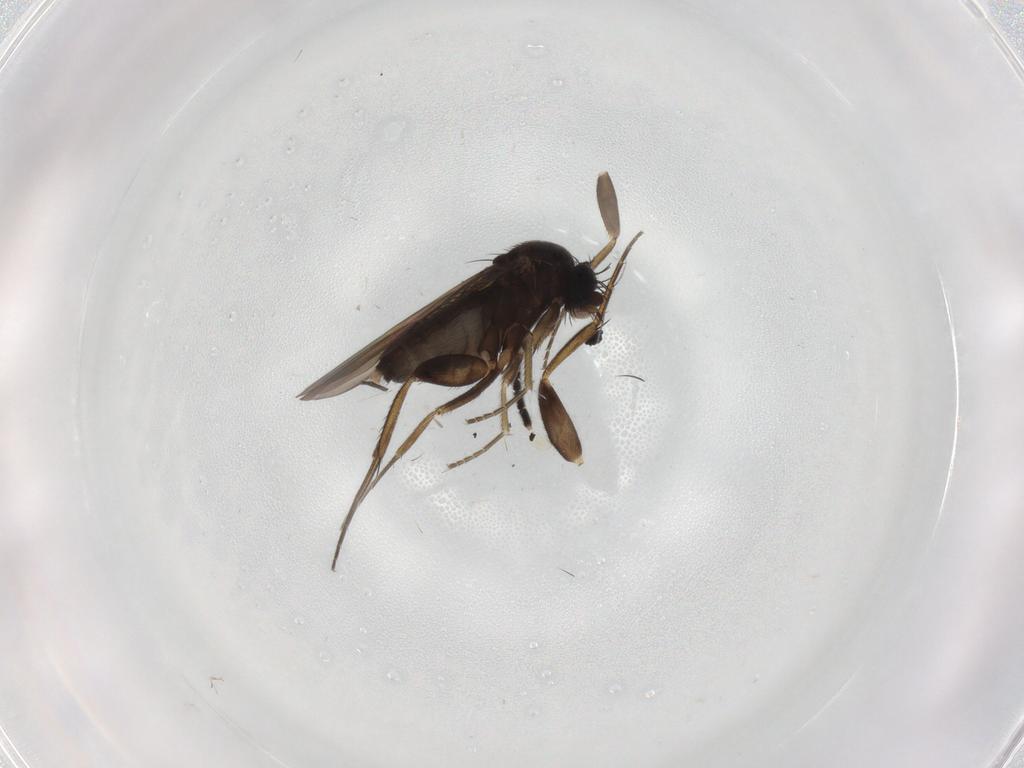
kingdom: Animalia
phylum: Arthropoda
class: Insecta
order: Diptera
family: Phoridae
